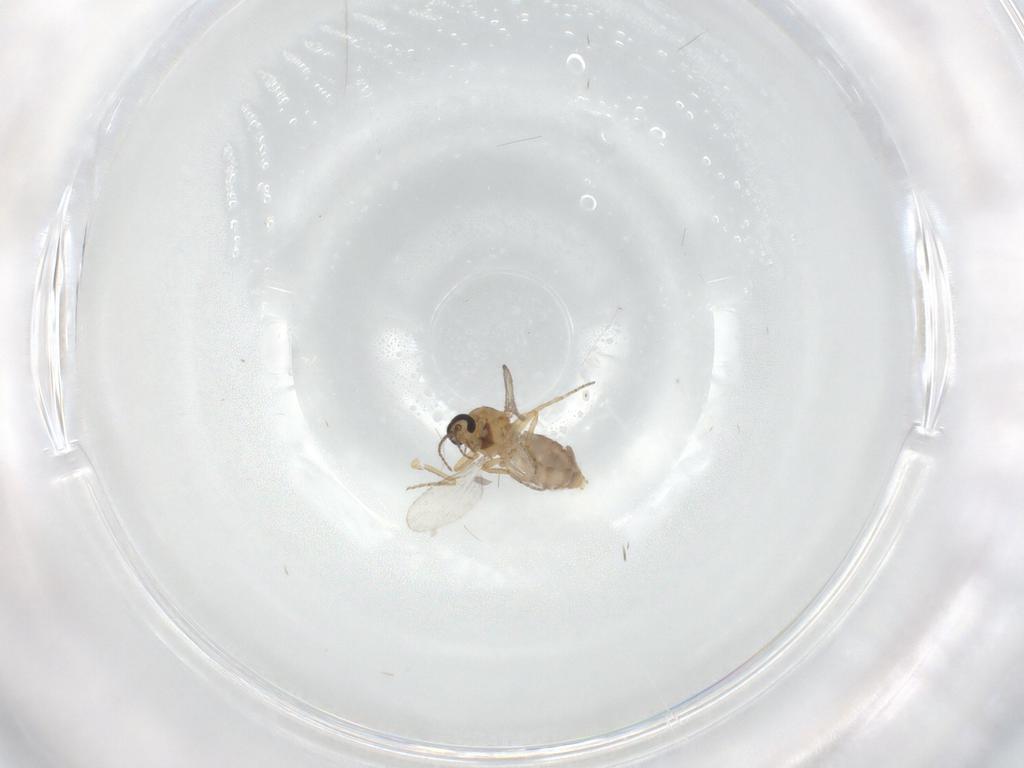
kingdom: Animalia
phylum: Arthropoda
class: Insecta
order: Diptera
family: Ceratopogonidae
